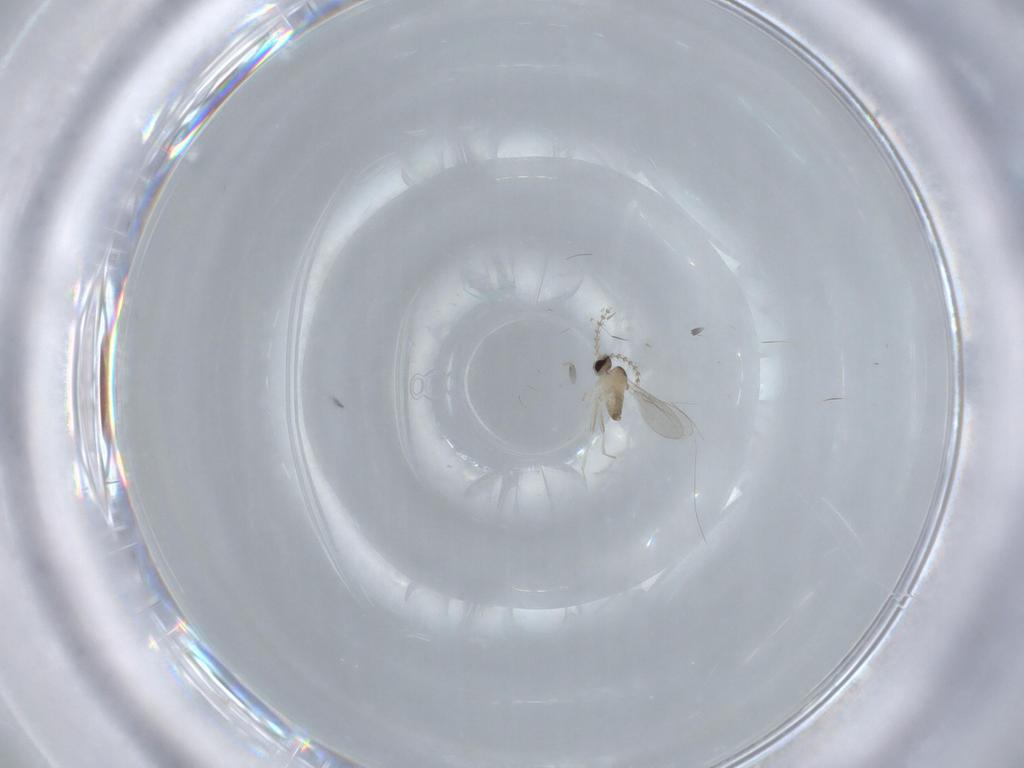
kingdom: Animalia
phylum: Arthropoda
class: Insecta
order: Diptera
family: Cecidomyiidae
